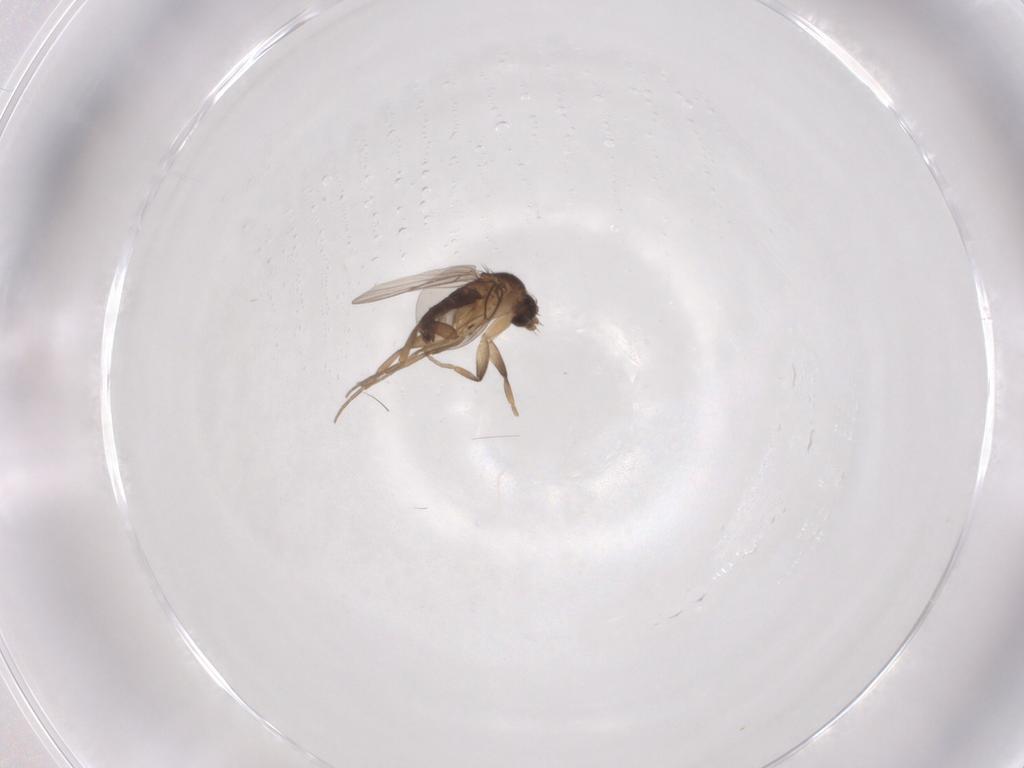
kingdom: Animalia
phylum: Arthropoda
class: Insecta
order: Diptera
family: Phoridae
